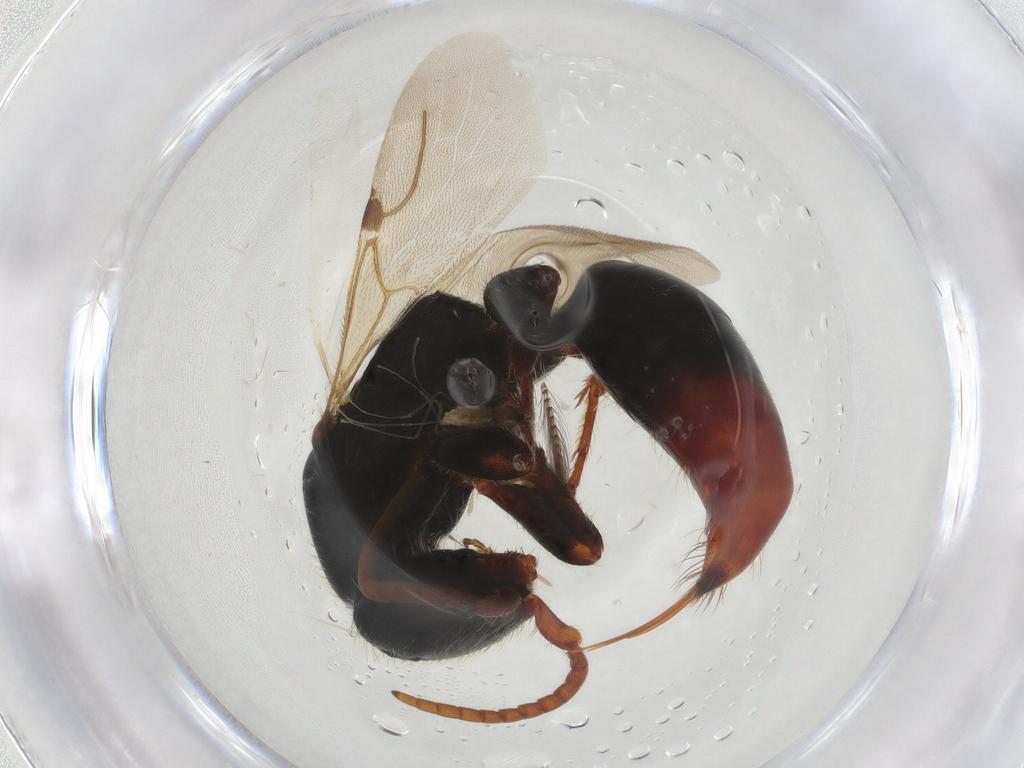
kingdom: Animalia
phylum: Arthropoda
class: Insecta
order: Hymenoptera
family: Bethylidae
